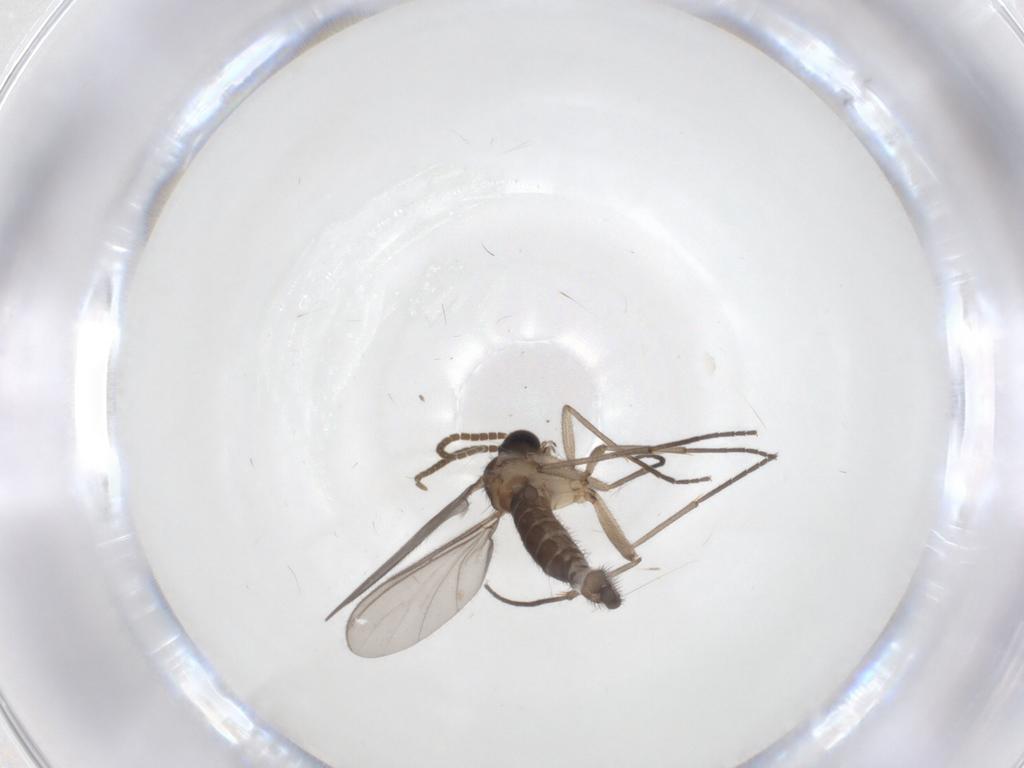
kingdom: Animalia
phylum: Arthropoda
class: Insecta
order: Diptera
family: Phoridae
